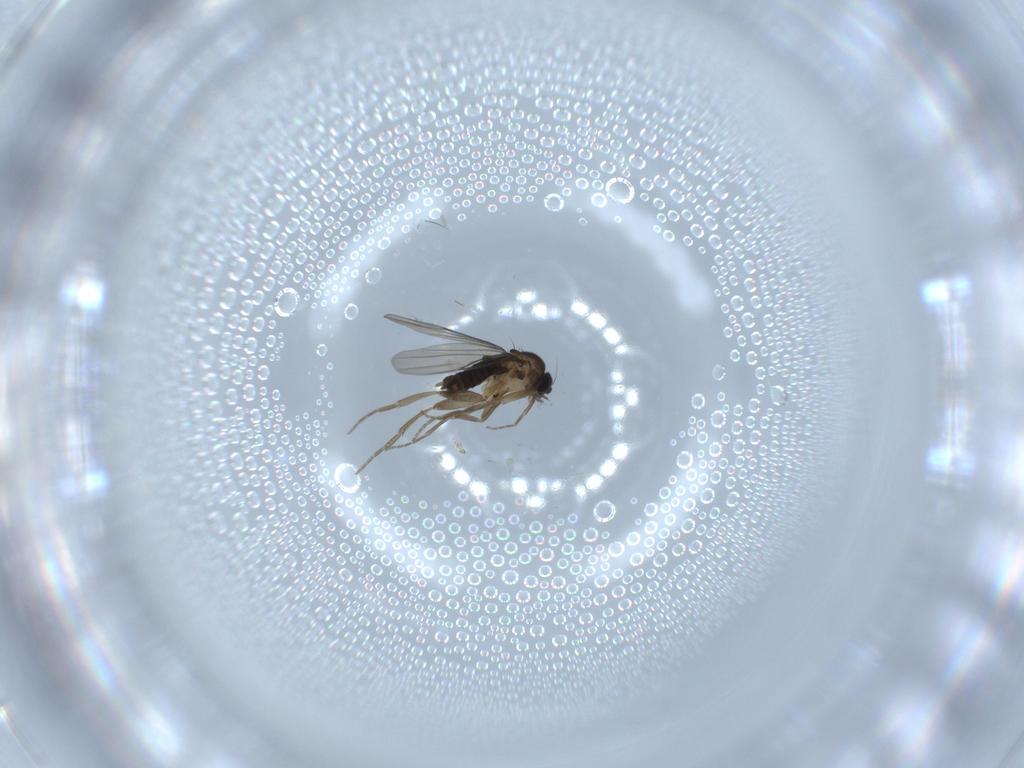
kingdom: Animalia
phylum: Arthropoda
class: Insecta
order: Diptera
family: Phoridae
